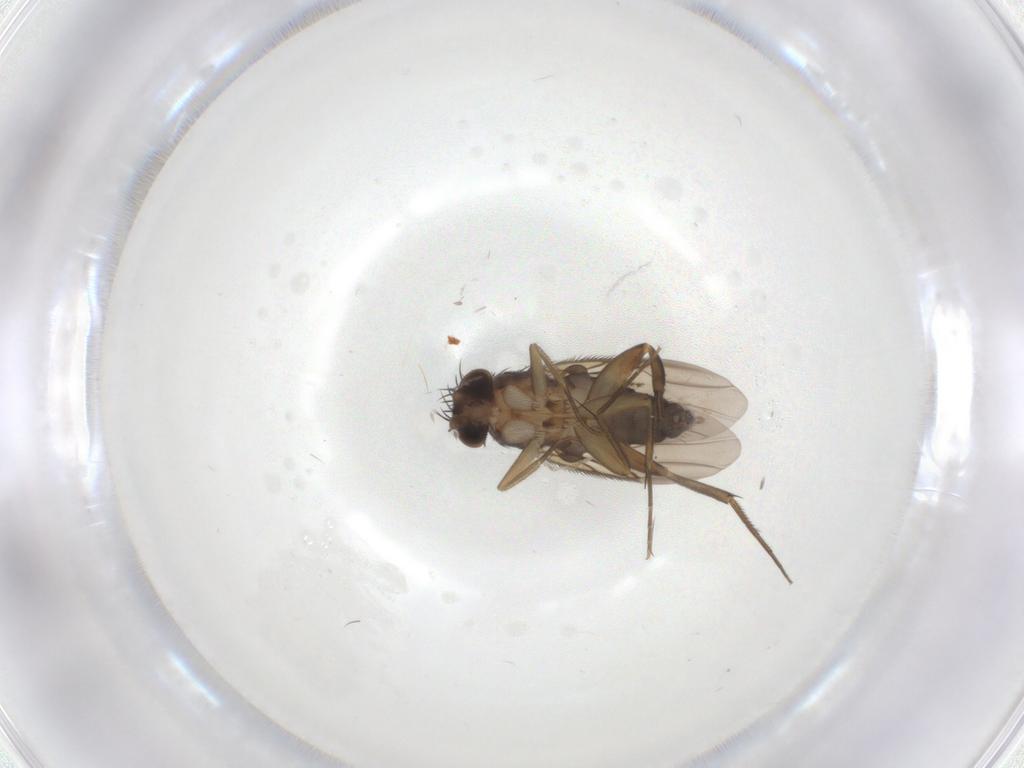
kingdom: Animalia
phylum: Arthropoda
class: Insecta
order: Diptera
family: Phoridae
